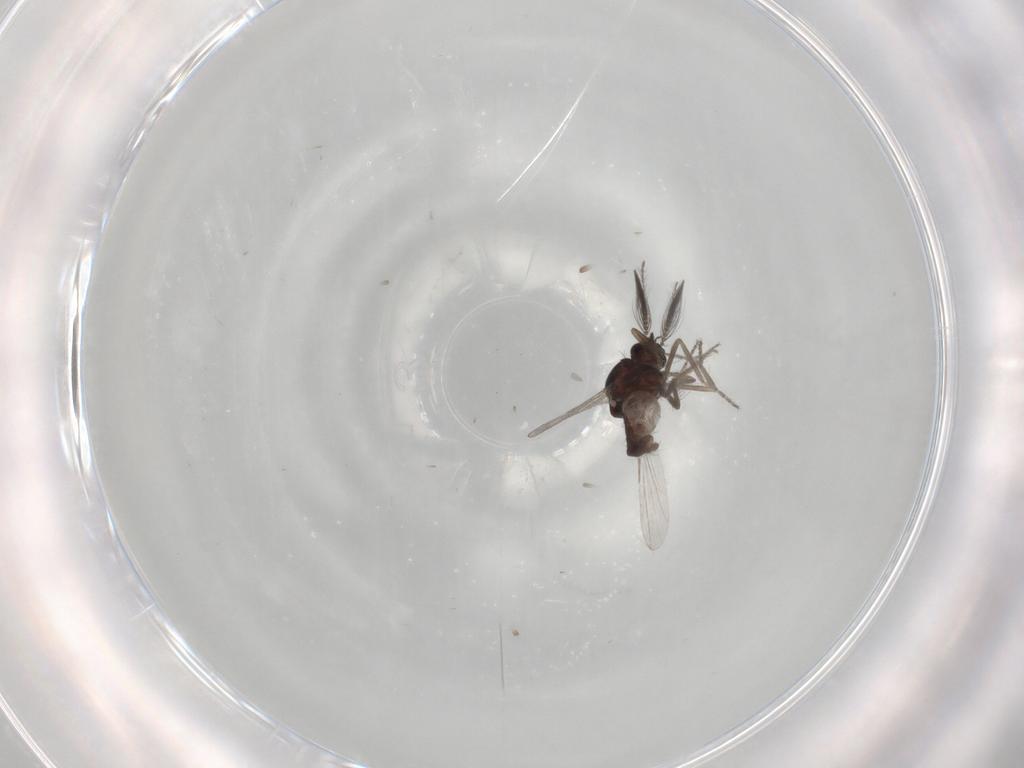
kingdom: Animalia
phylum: Arthropoda
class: Insecta
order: Diptera
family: Ceratopogonidae
